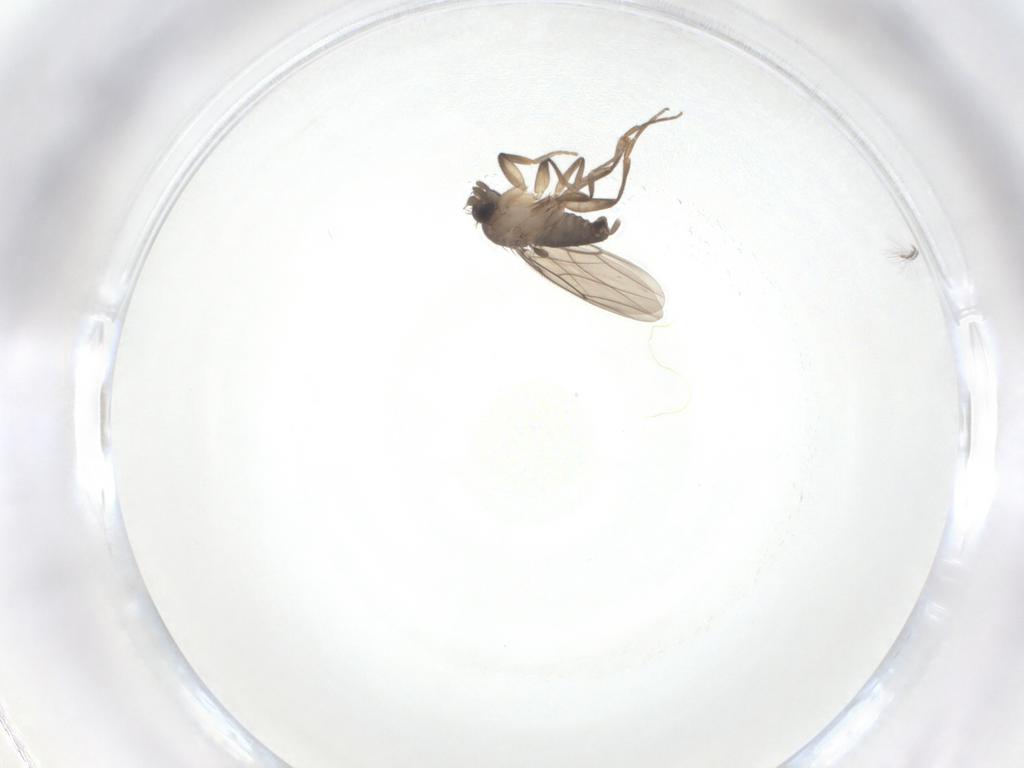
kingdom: Animalia
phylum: Arthropoda
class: Insecta
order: Diptera
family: Chironomidae
